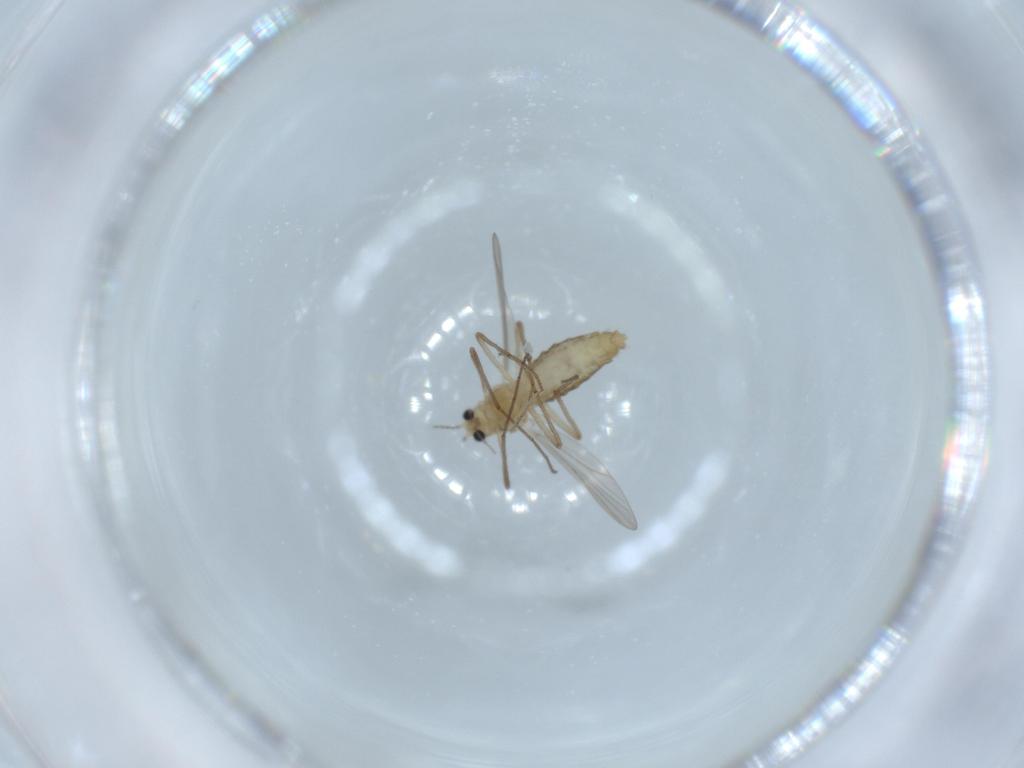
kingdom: Animalia
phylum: Arthropoda
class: Insecta
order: Diptera
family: Chironomidae
